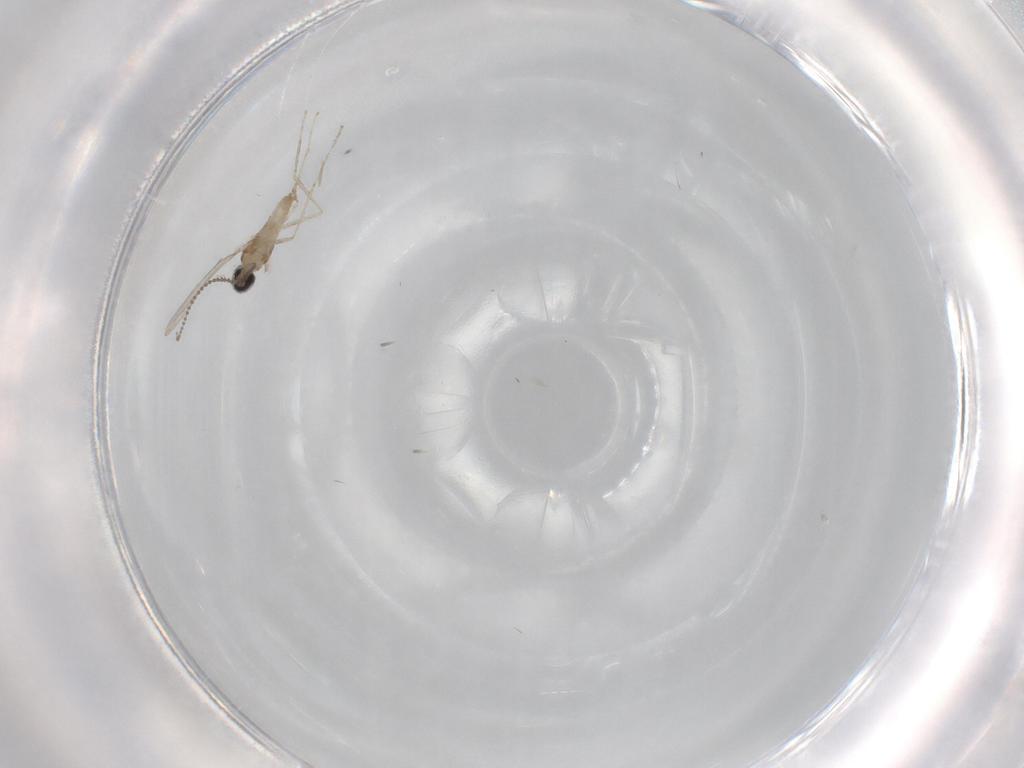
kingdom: Animalia
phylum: Arthropoda
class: Insecta
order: Diptera
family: Cecidomyiidae
